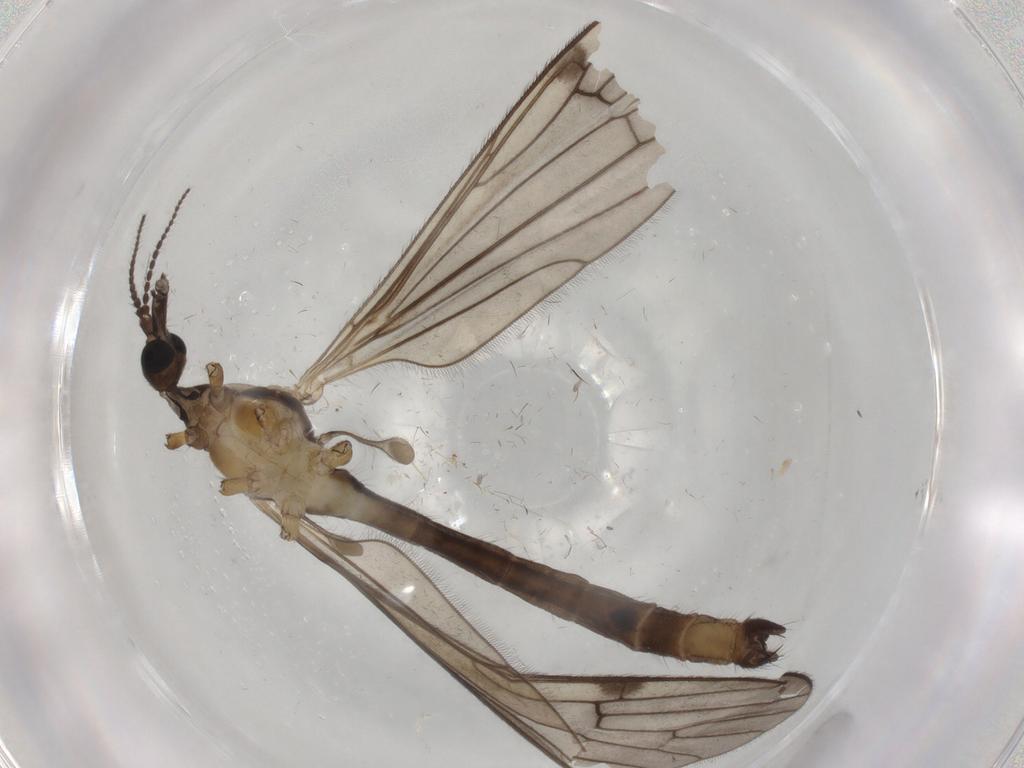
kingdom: Animalia
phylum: Arthropoda
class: Insecta
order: Diptera
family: Limoniidae
